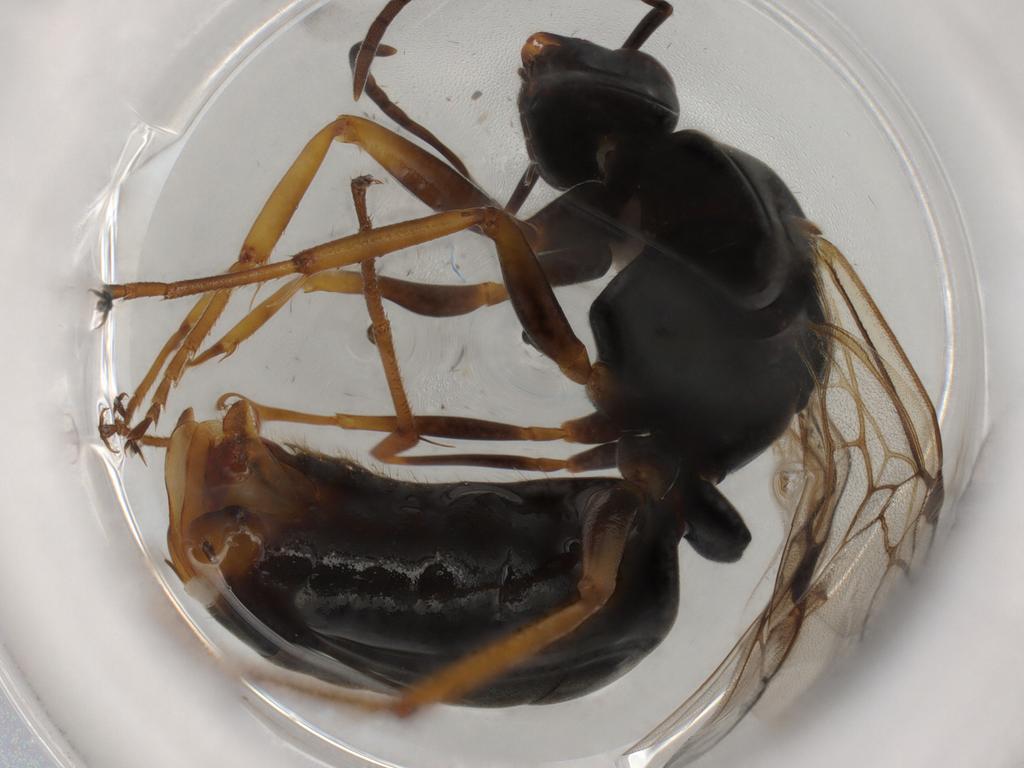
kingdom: Animalia
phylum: Arthropoda
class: Insecta
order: Hymenoptera
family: Formicidae
